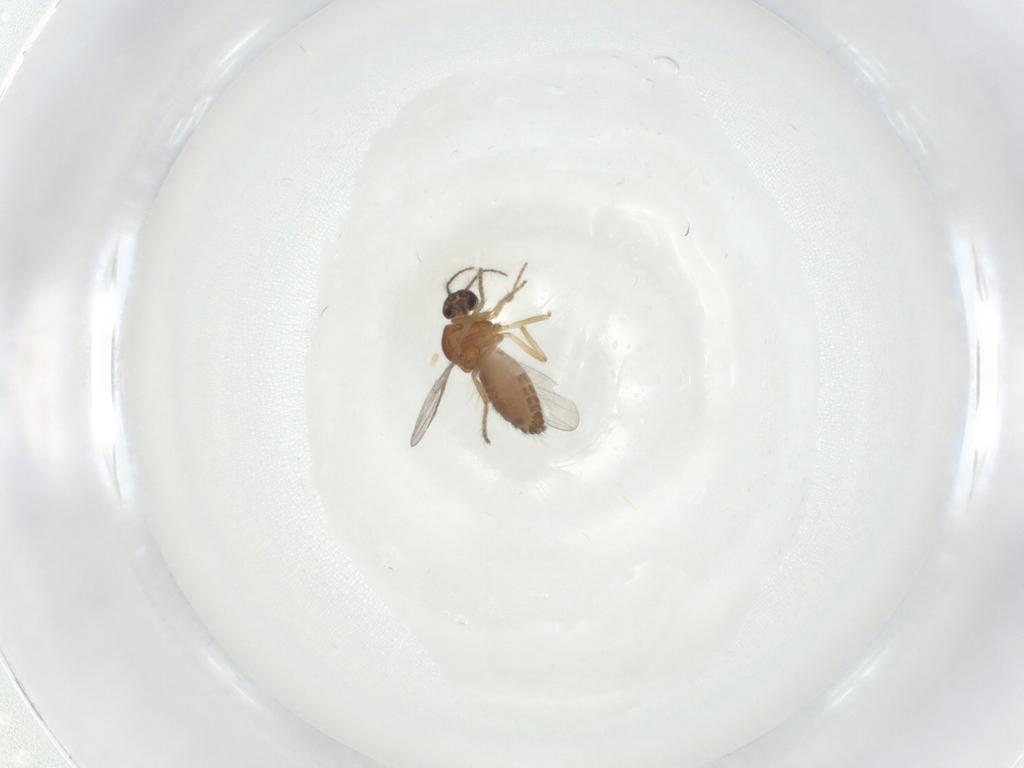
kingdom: Animalia
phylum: Arthropoda
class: Insecta
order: Diptera
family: Ceratopogonidae
